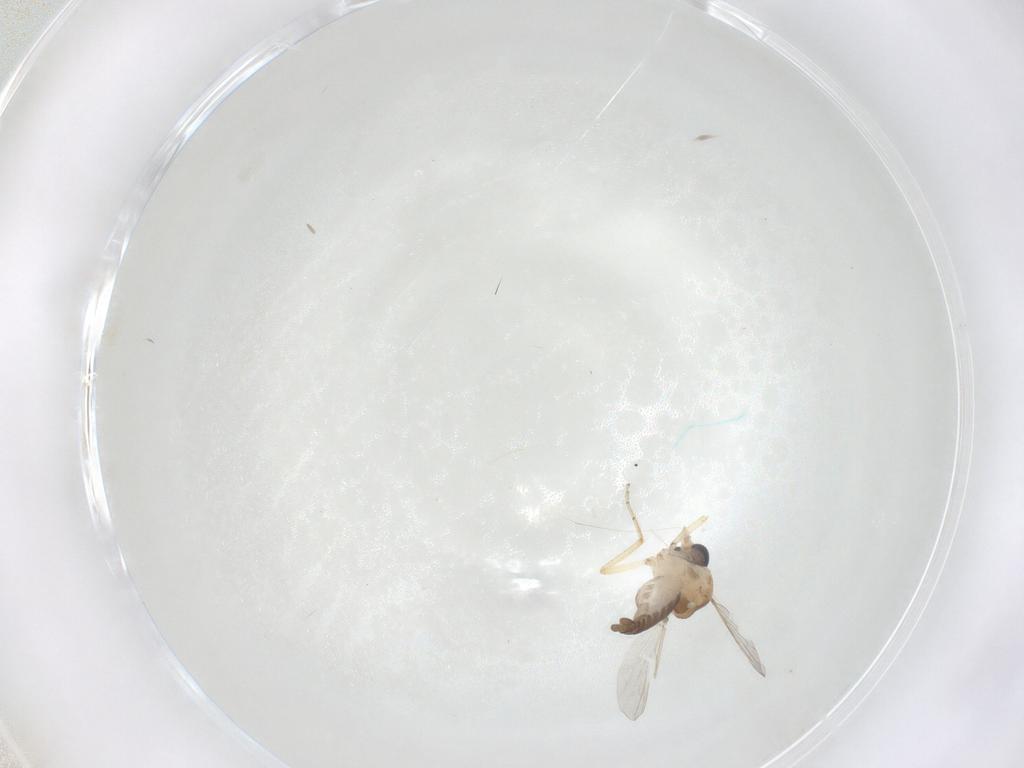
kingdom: Animalia
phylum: Arthropoda
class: Insecta
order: Diptera
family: Ceratopogonidae
